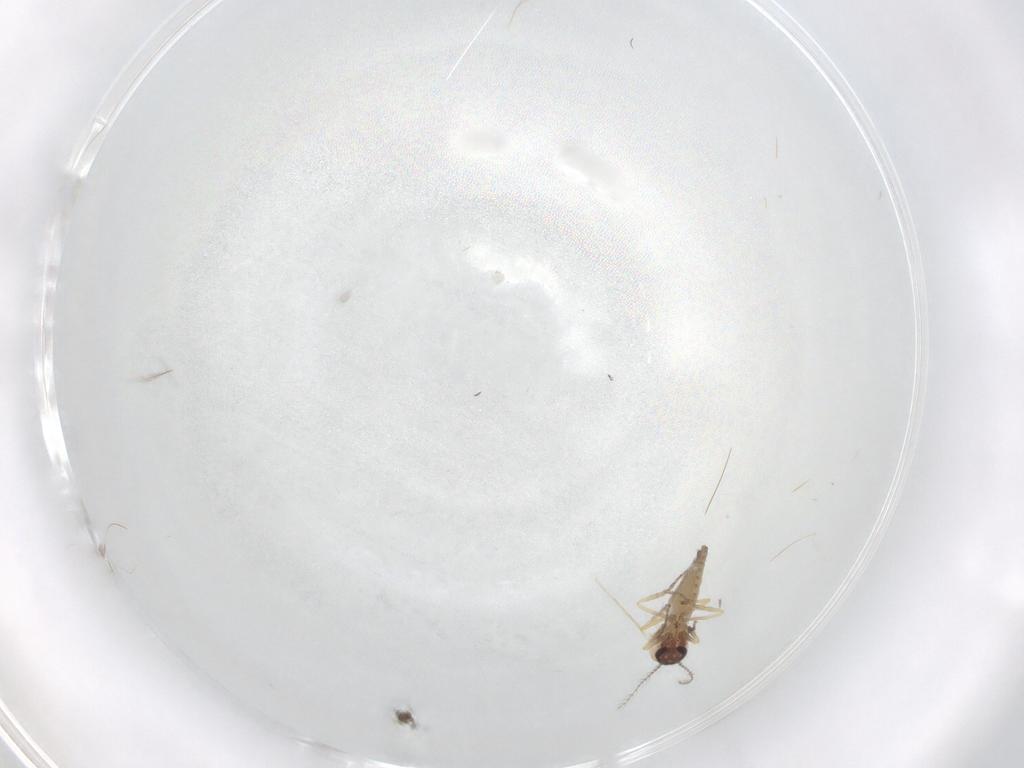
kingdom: Animalia
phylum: Arthropoda
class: Insecta
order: Diptera
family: Ceratopogonidae
